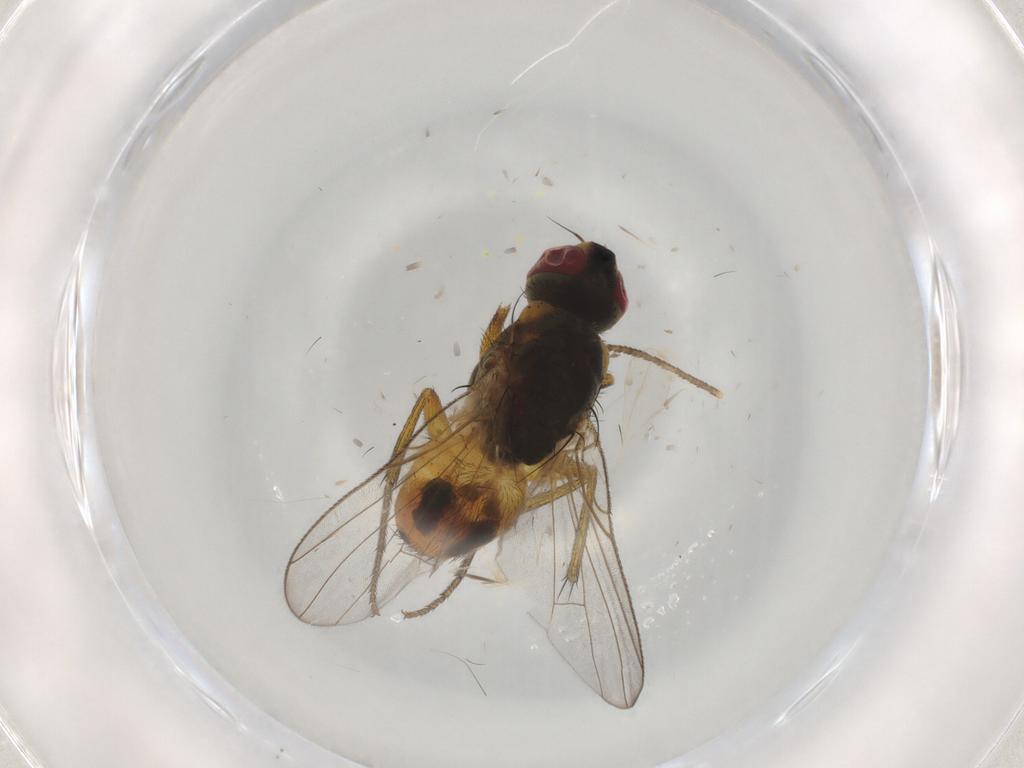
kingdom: Animalia
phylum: Arthropoda
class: Insecta
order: Diptera
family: Muscidae
